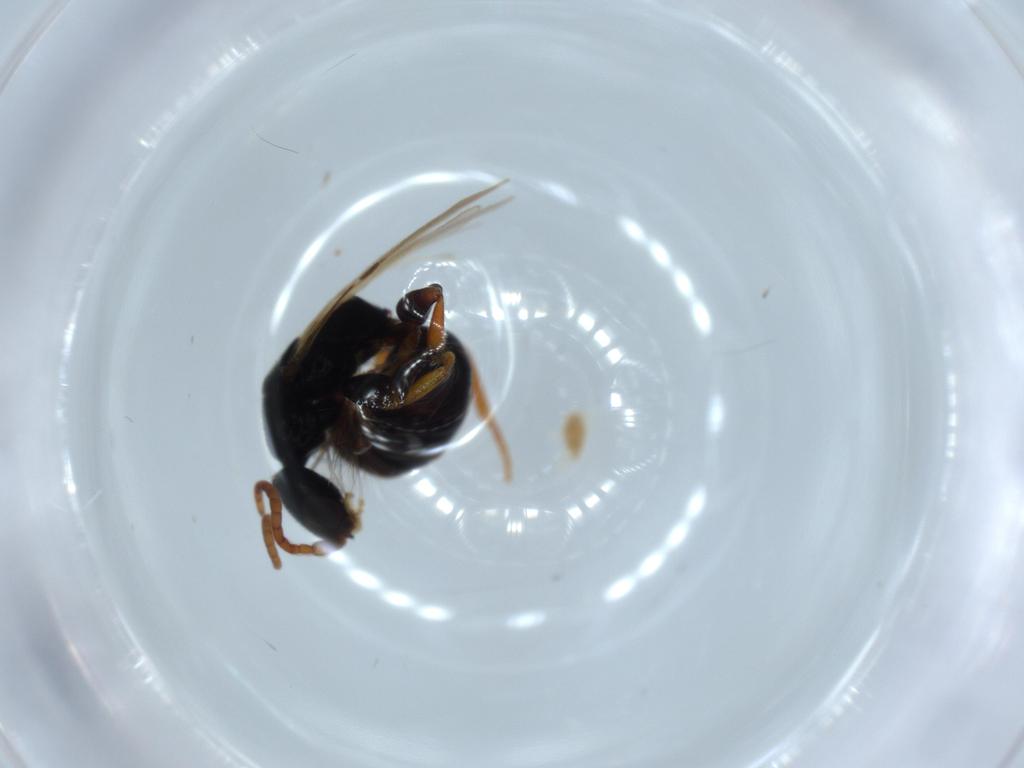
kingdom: Animalia
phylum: Arthropoda
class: Insecta
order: Hymenoptera
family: Bethylidae
